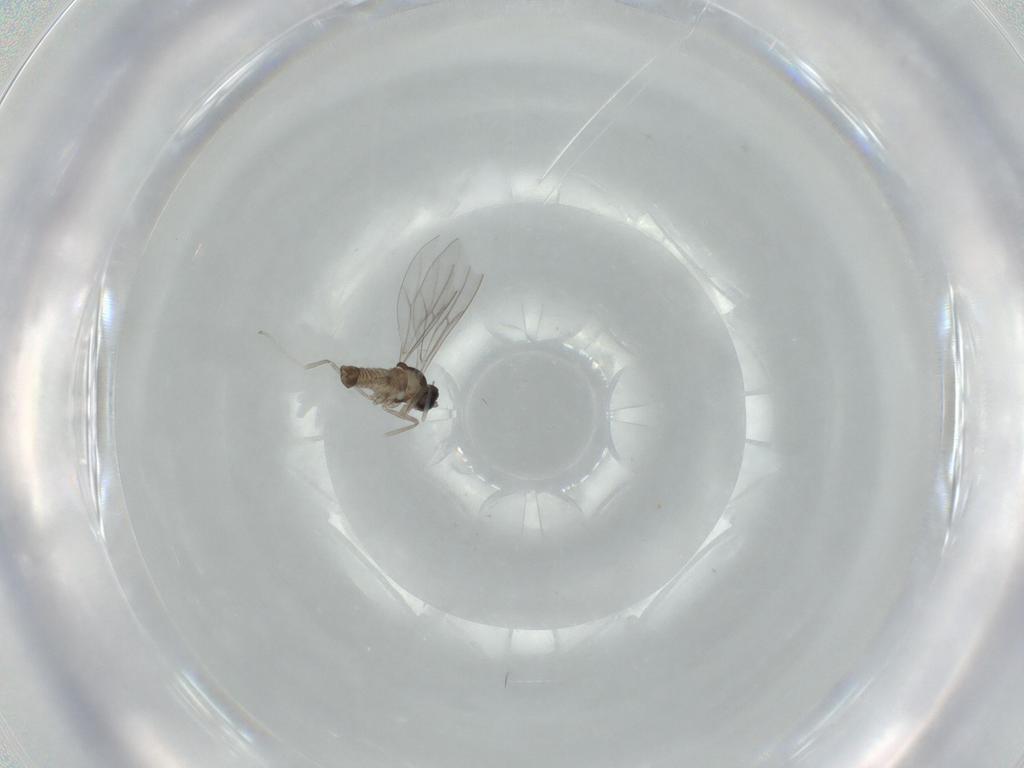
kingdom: Animalia
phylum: Arthropoda
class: Insecta
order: Diptera
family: Cecidomyiidae
